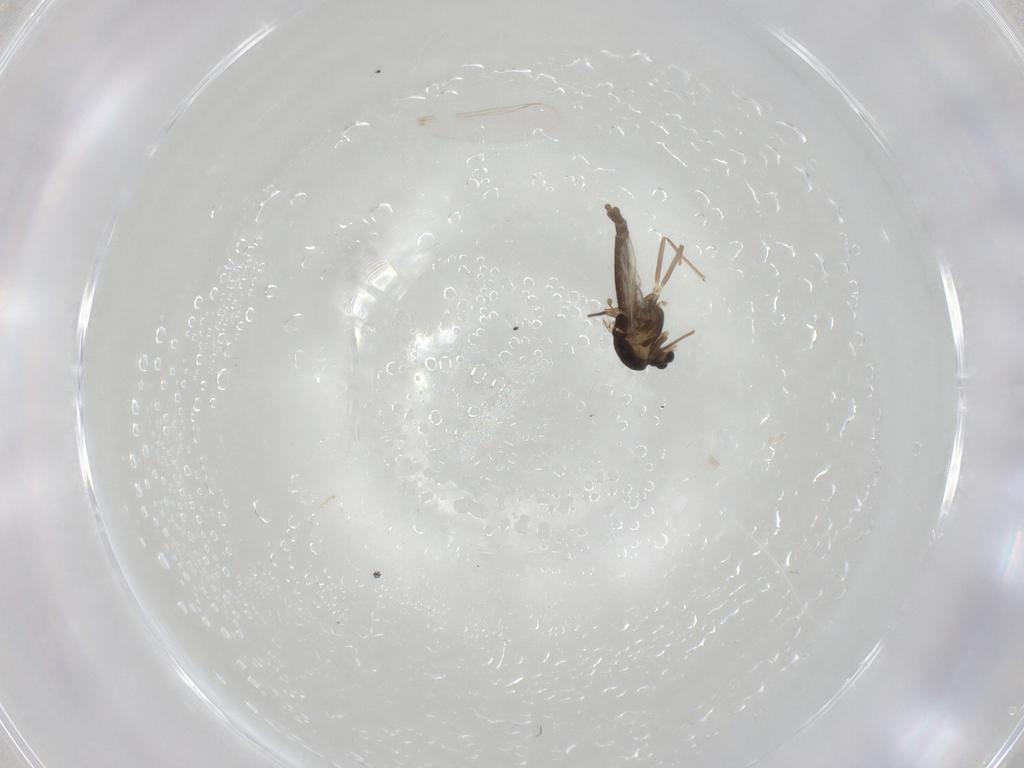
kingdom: Animalia
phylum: Arthropoda
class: Insecta
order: Diptera
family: Chironomidae
